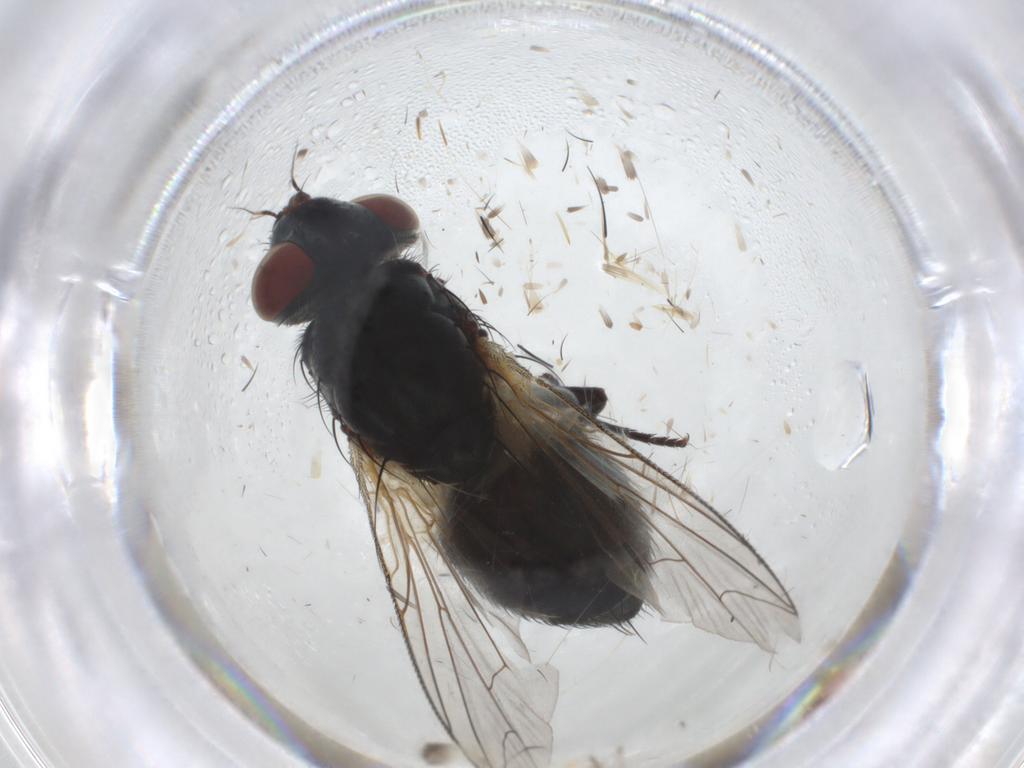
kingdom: Animalia
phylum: Arthropoda
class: Insecta
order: Diptera
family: Sarcophagidae
